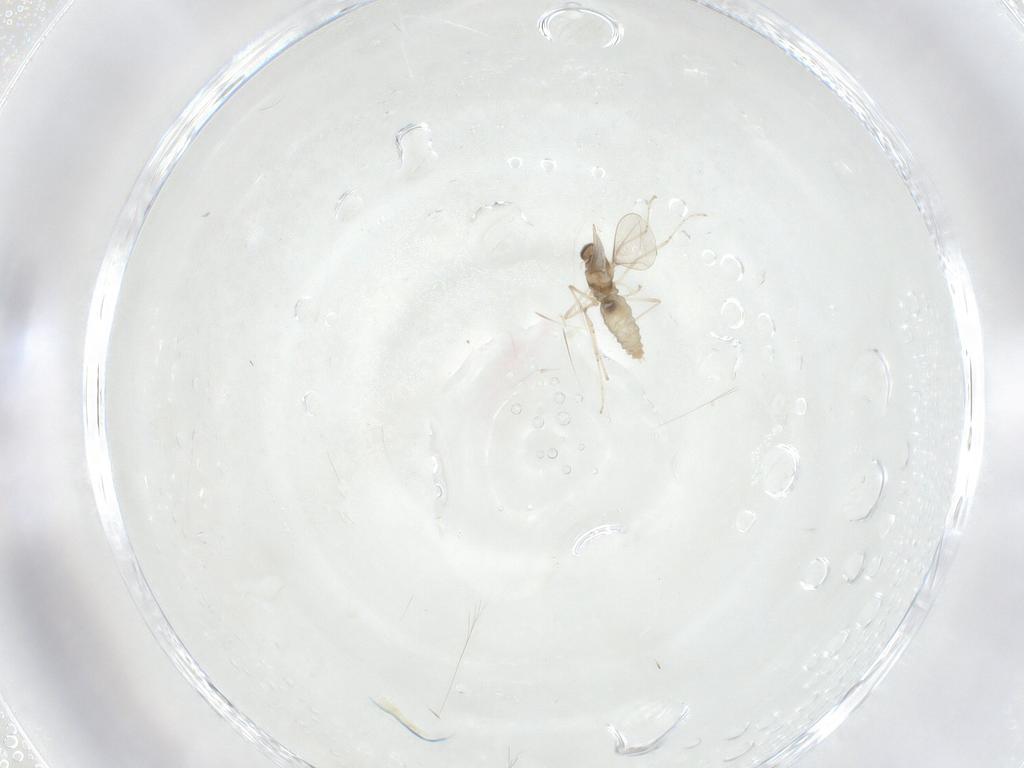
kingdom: Animalia
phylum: Arthropoda
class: Insecta
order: Diptera
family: Cecidomyiidae
